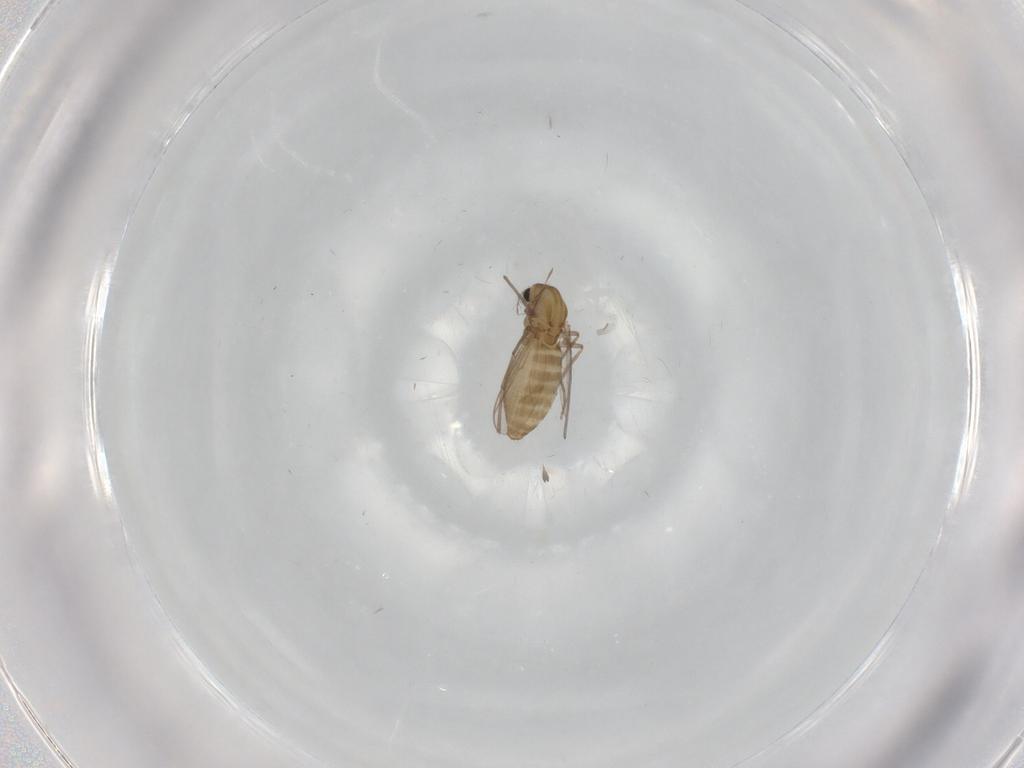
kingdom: Animalia
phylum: Arthropoda
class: Insecta
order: Diptera
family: Chironomidae
